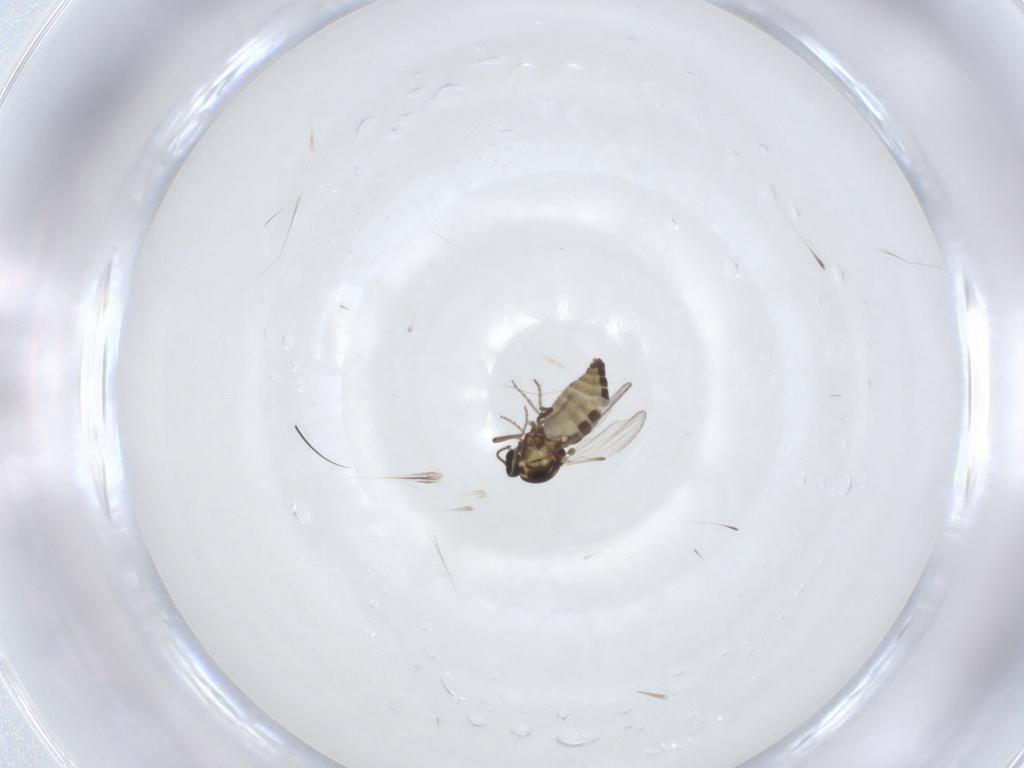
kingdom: Animalia
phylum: Arthropoda
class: Insecta
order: Diptera
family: Ceratopogonidae
